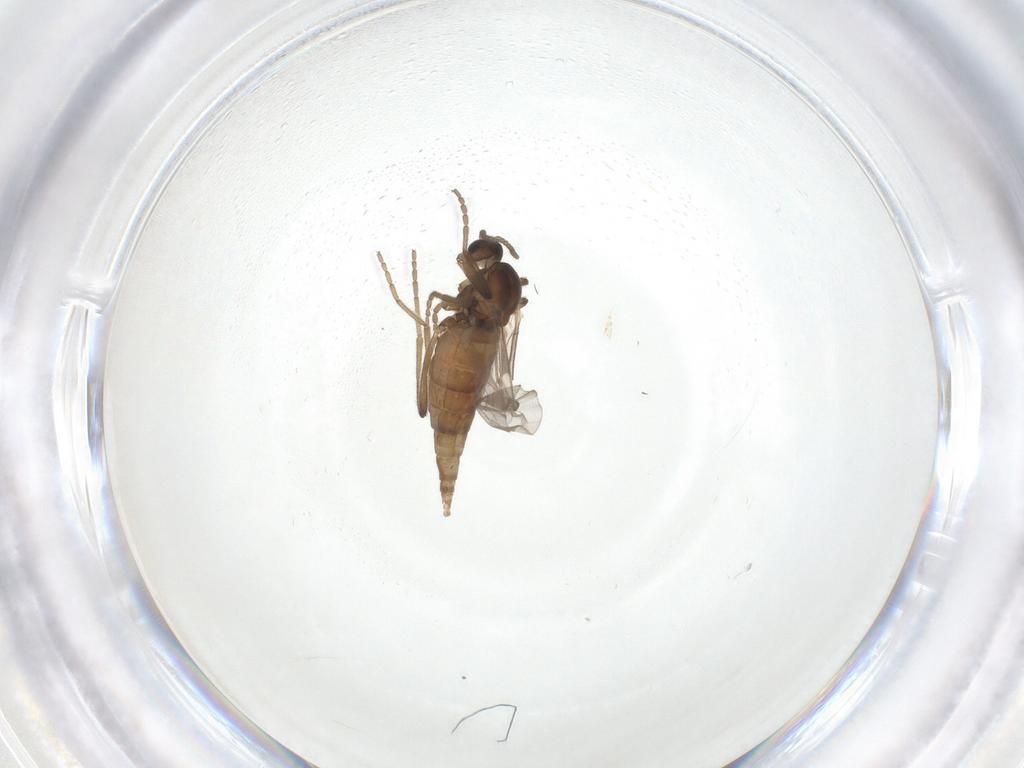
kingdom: Animalia
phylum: Arthropoda
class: Insecta
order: Diptera
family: Cecidomyiidae
